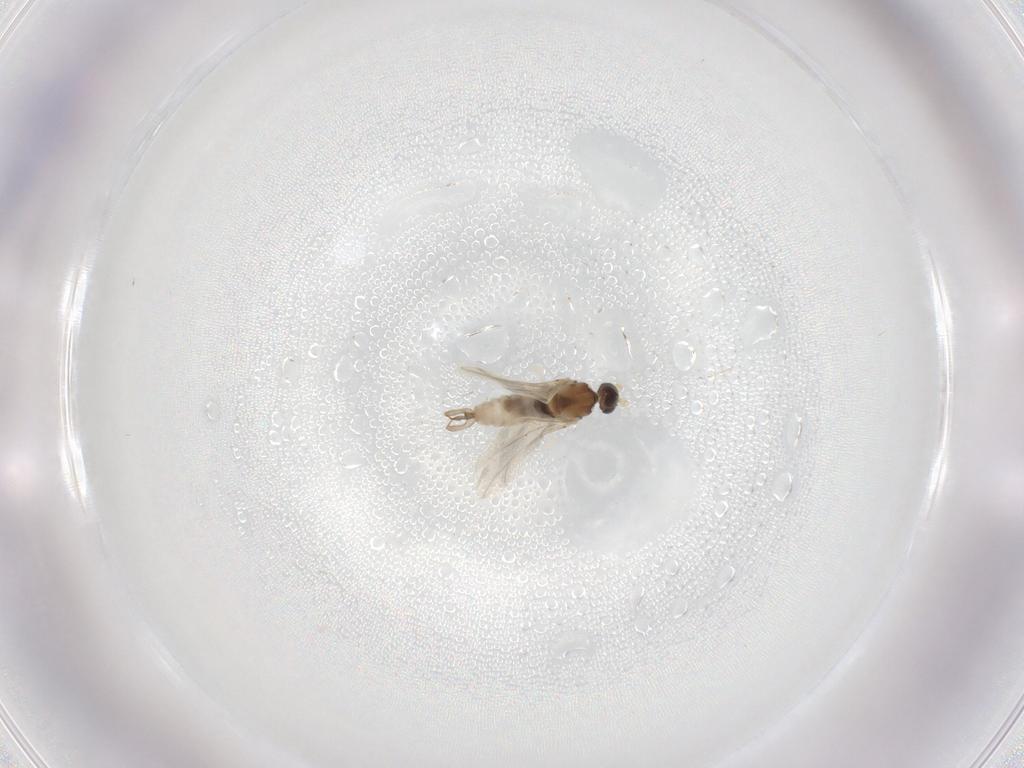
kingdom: Animalia
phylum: Arthropoda
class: Insecta
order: Diptera
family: Cecidomyiidae
